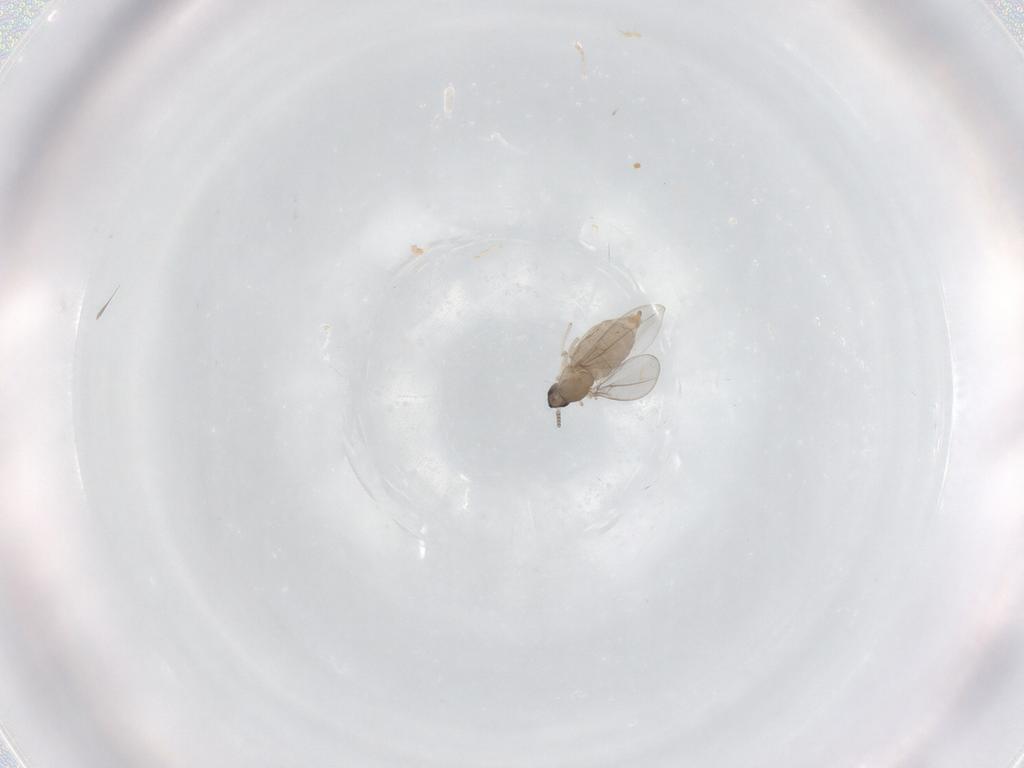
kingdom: Animalia
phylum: Arthropoda
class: Insecta
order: Diptera
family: Cecidomyiidae
